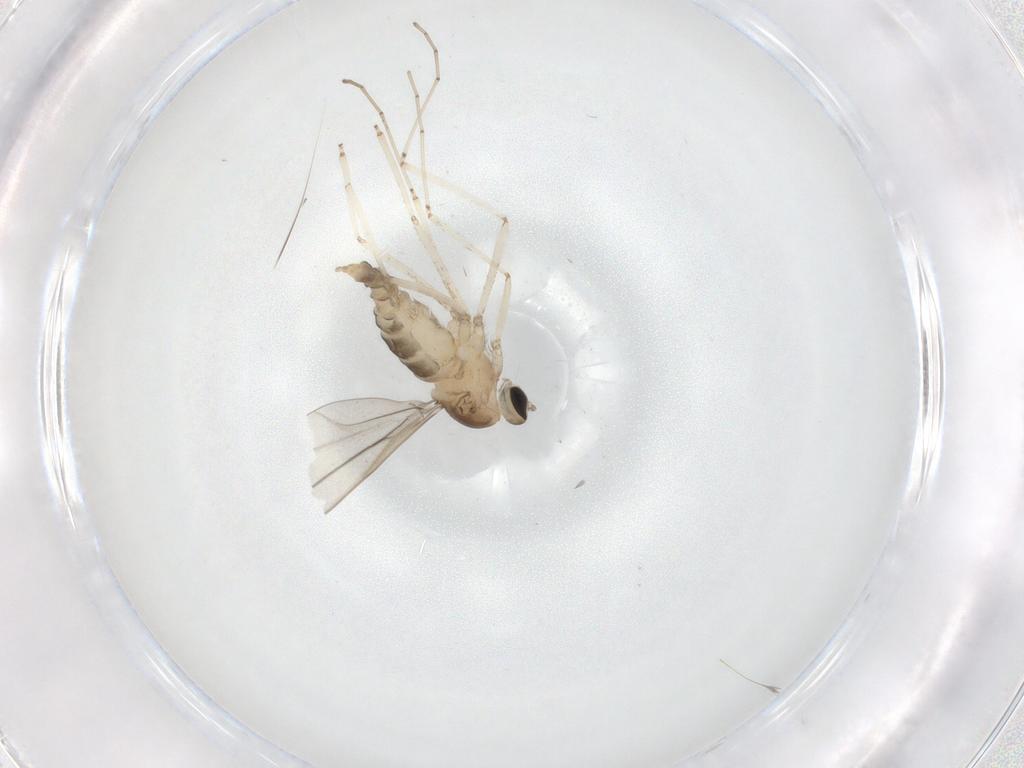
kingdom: Animalia
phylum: Arthropoda
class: Insecta
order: Diptera
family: Cecidomyiidae
